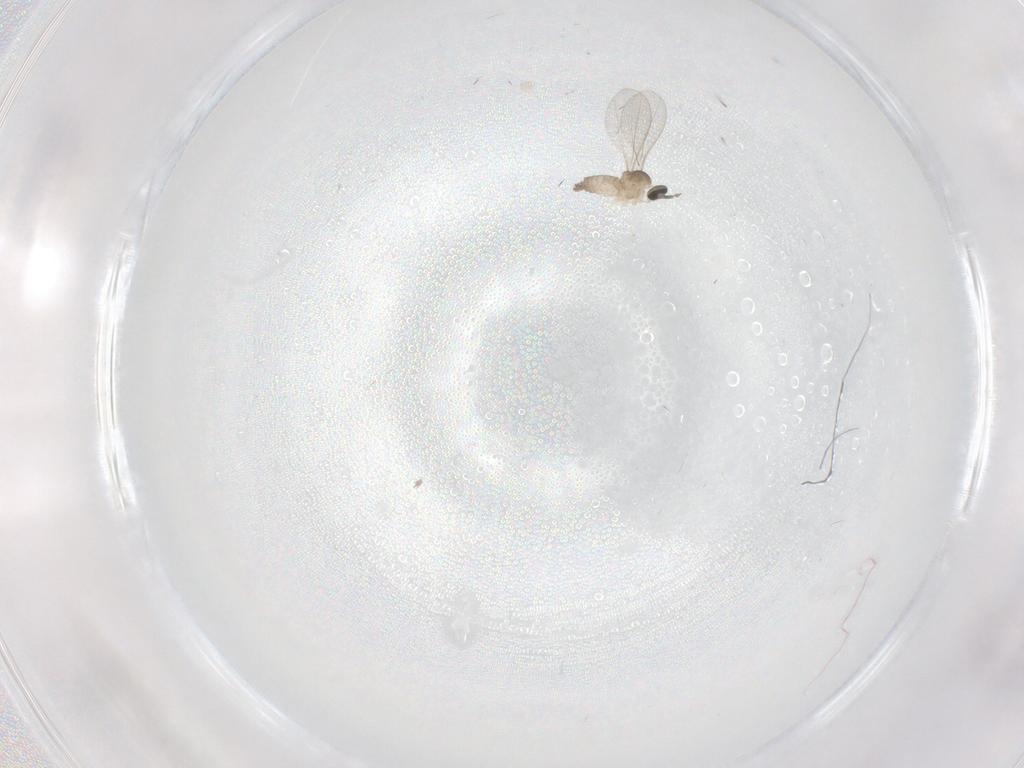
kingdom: Animalia
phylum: Arthropoda
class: Insecta
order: Diptera
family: Cecidomyiidae
